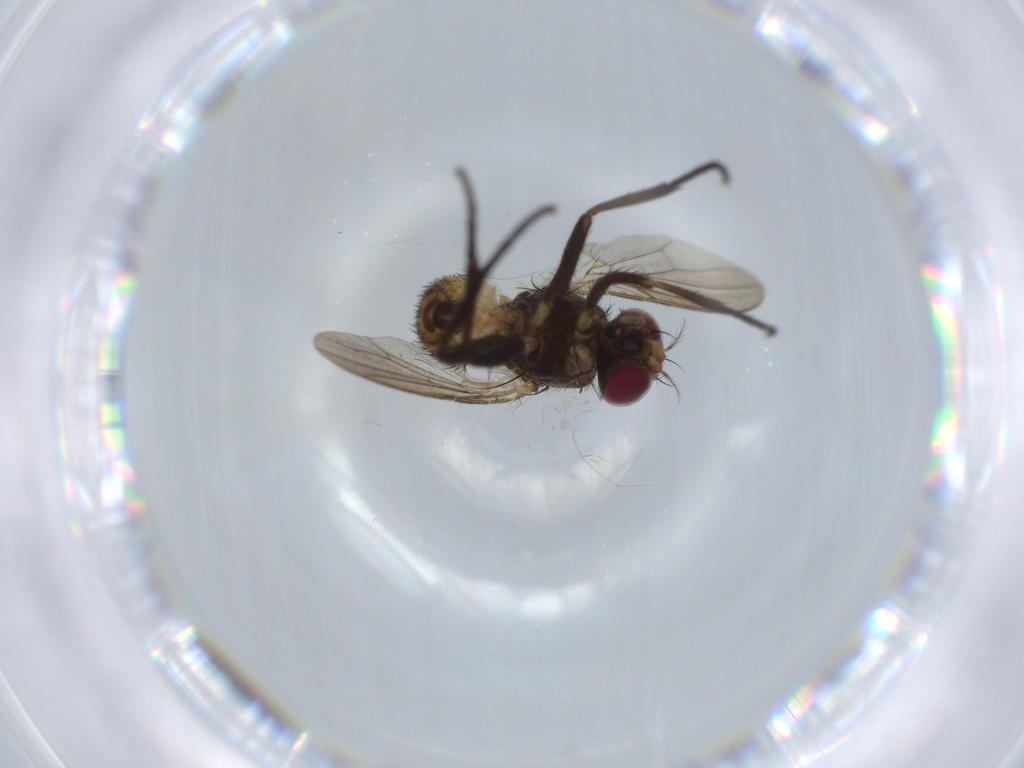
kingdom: Animalia
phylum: Arthropoda
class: Insecta
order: Diptera
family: Anthomyiidae
